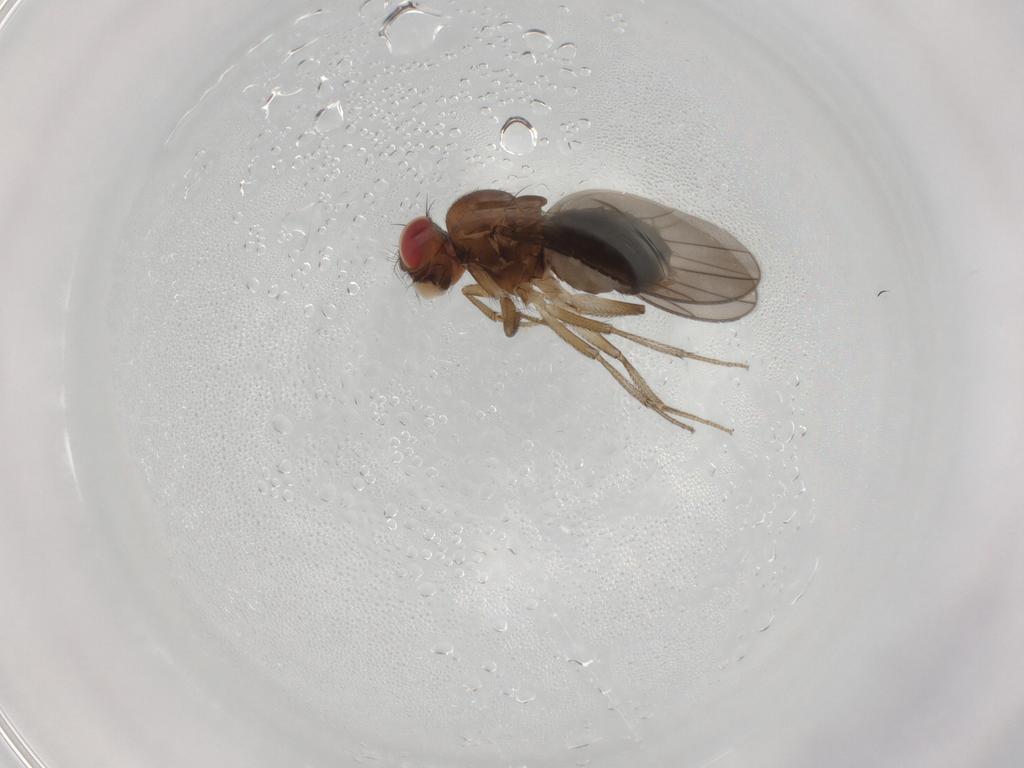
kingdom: Animalia
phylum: Arthropoda
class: Insecta
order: Diptera
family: Drosophilidae
